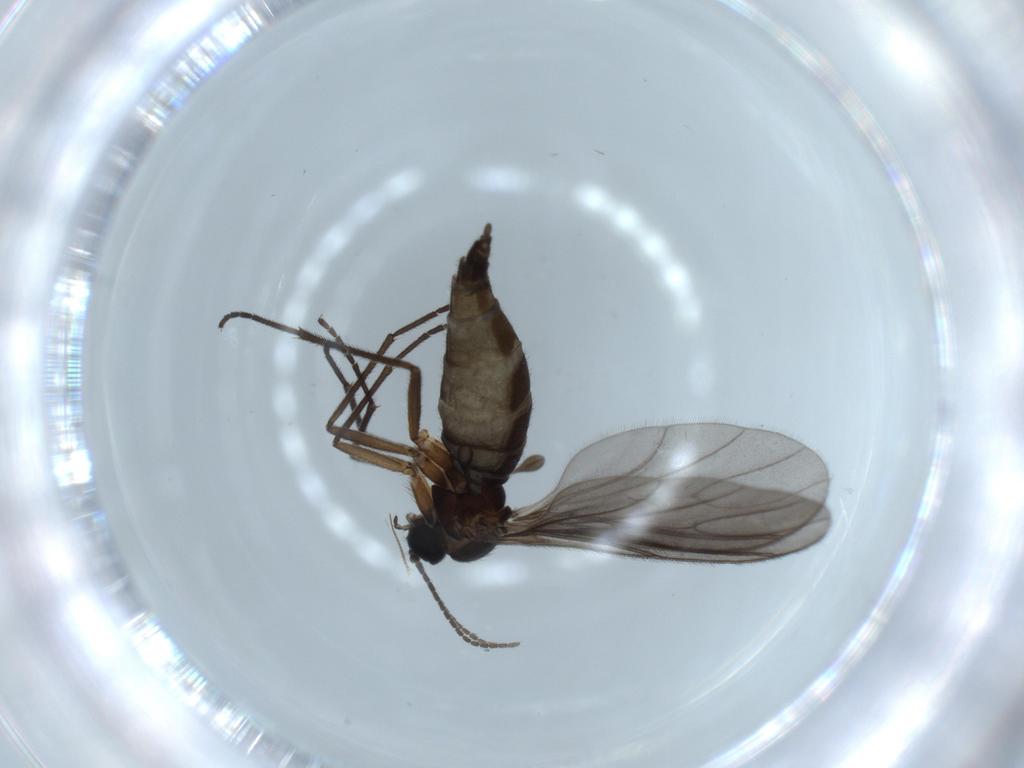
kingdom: Animalia
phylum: Arthropoda
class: Insecta
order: Diptera
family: Sciaridae
